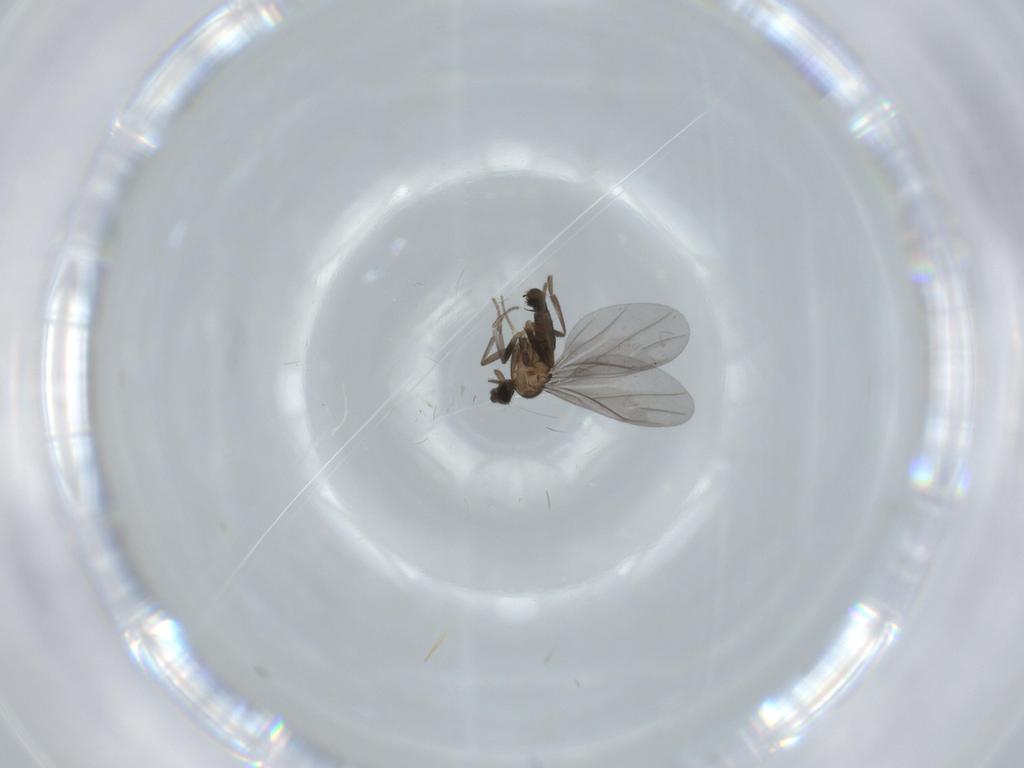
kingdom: Animalia
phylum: Arthropoda
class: Insecta
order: Diptera
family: Phoridae
